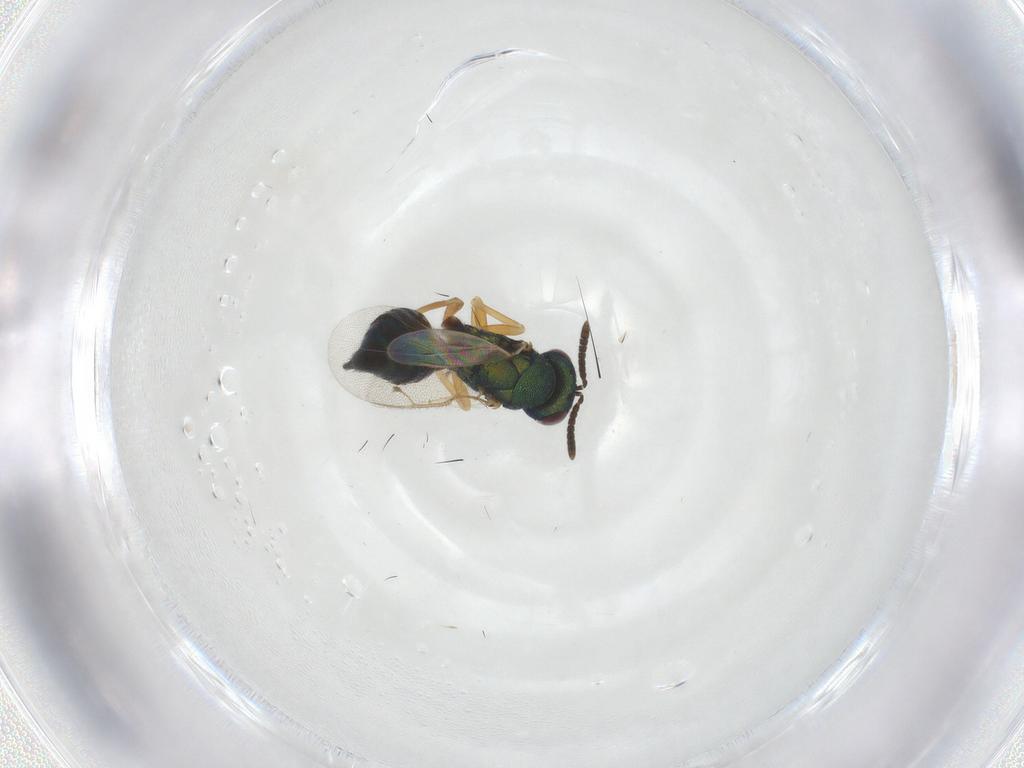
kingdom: Animalia
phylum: Arthropoda
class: Insecta
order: Hymenoptera
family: Pteromalidae
